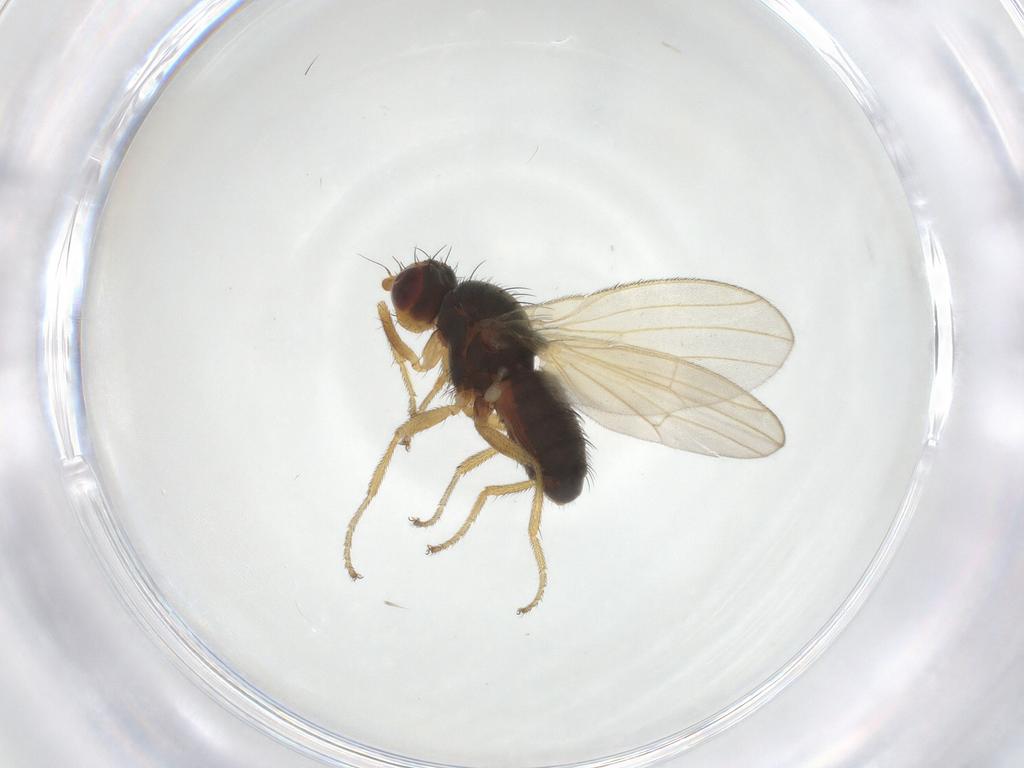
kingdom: Animalia
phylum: Arthropoda
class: Insecta
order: Diptera
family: Heleomyzidae
